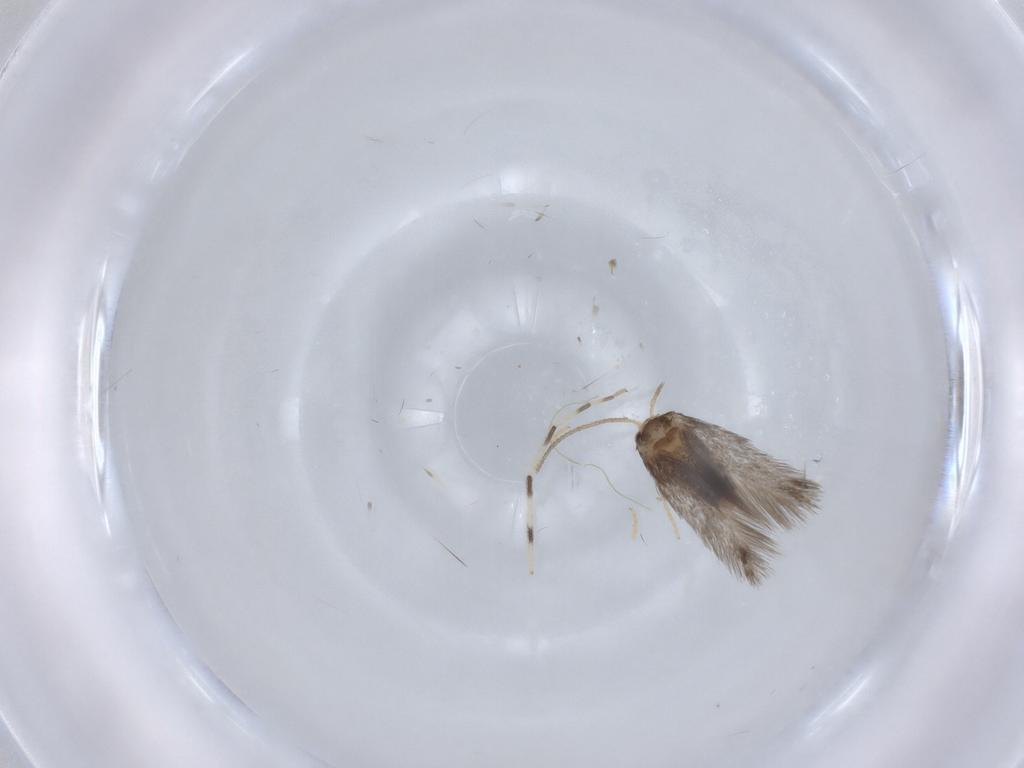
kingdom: Animalia
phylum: Arthropoda
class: Insecta
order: Lepidoptera
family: Nepticulidae
